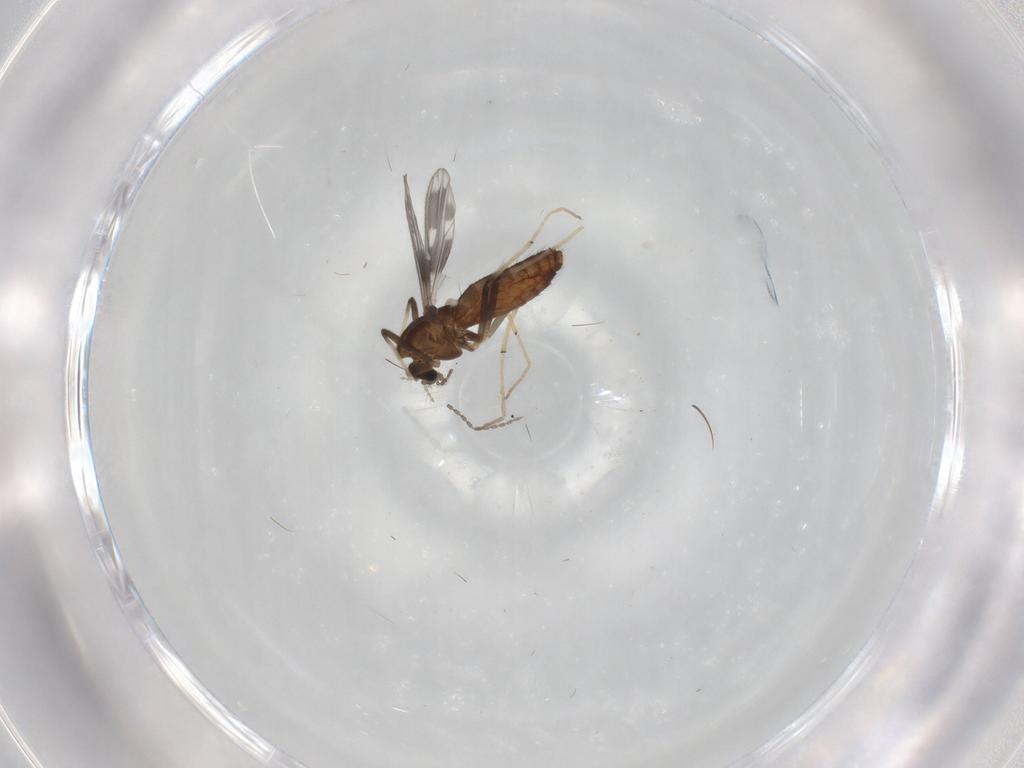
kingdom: Animalia
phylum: Arthropoda
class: Insecta
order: Diptera
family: Chironomidae
